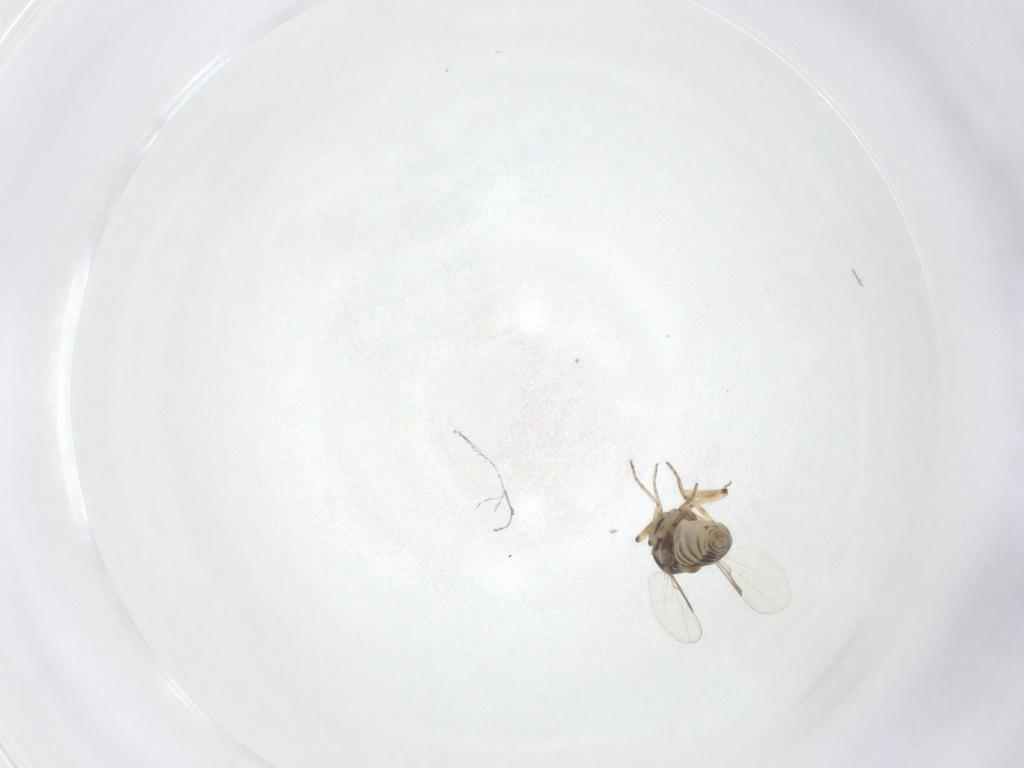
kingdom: Animalia
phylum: Arthropoda
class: Insecta
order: Diptera
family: Ceratopogonidae
